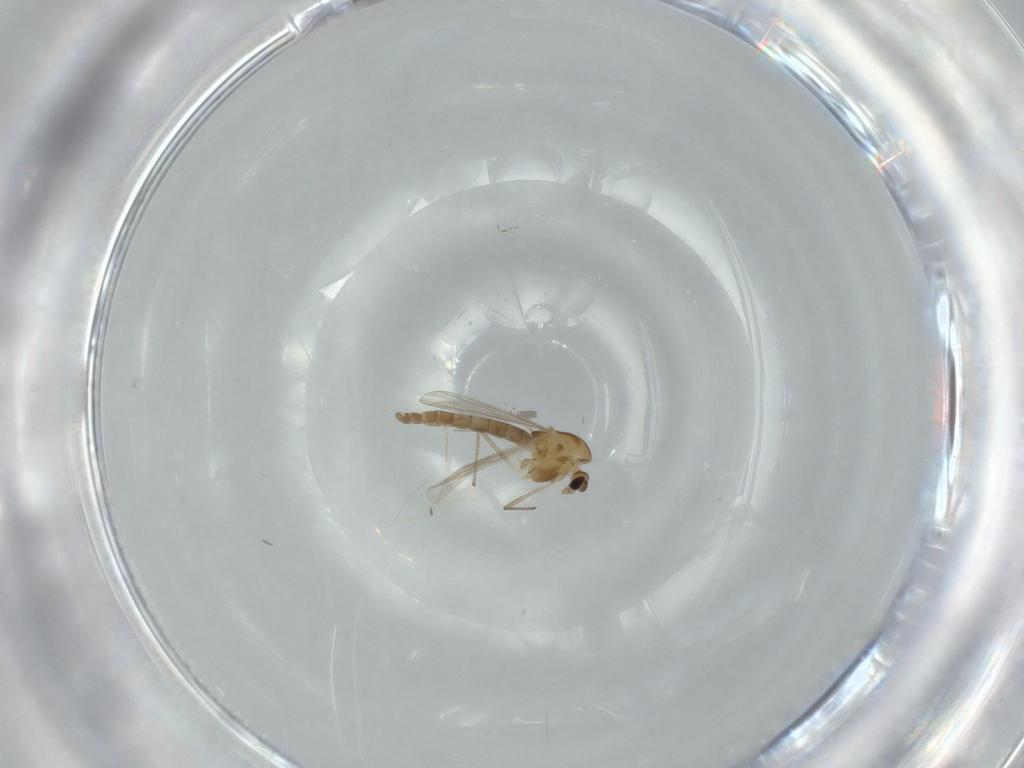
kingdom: Animalia
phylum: Arthropoda
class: Insecta
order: Diptera
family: Chironomidae
